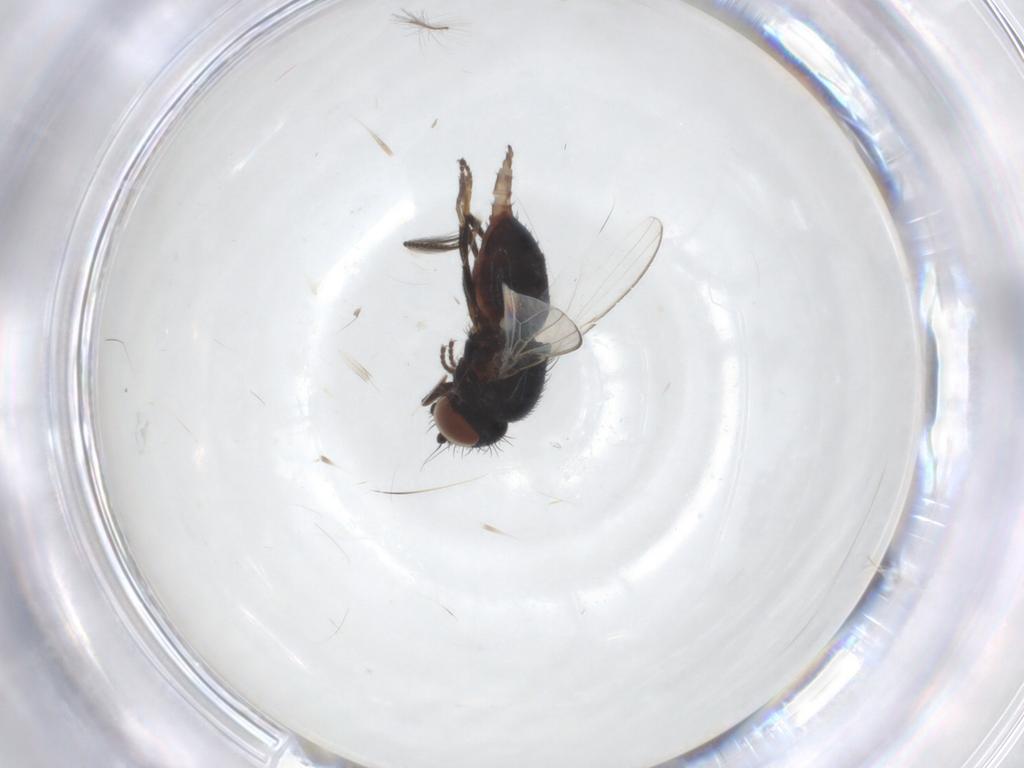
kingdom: Animalia
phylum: Arthropoda
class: Insecta
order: Diptera
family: Milichiidae
